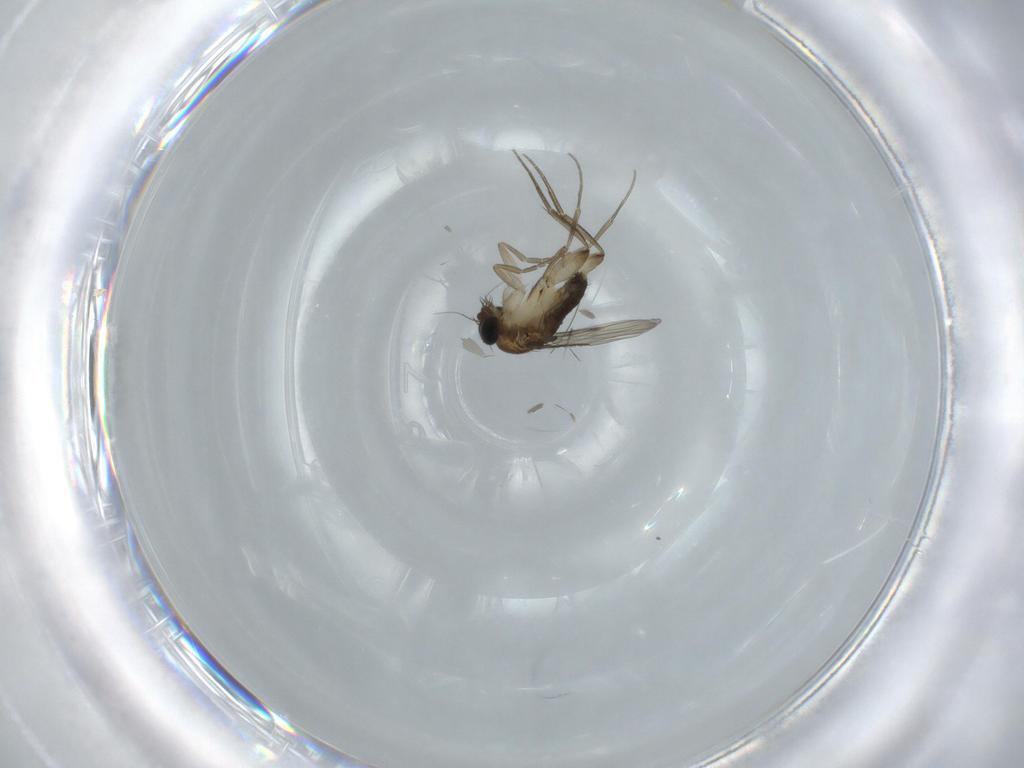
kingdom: Animalia
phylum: Arthropoda
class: Insecta
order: Diptera
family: Phoridae
